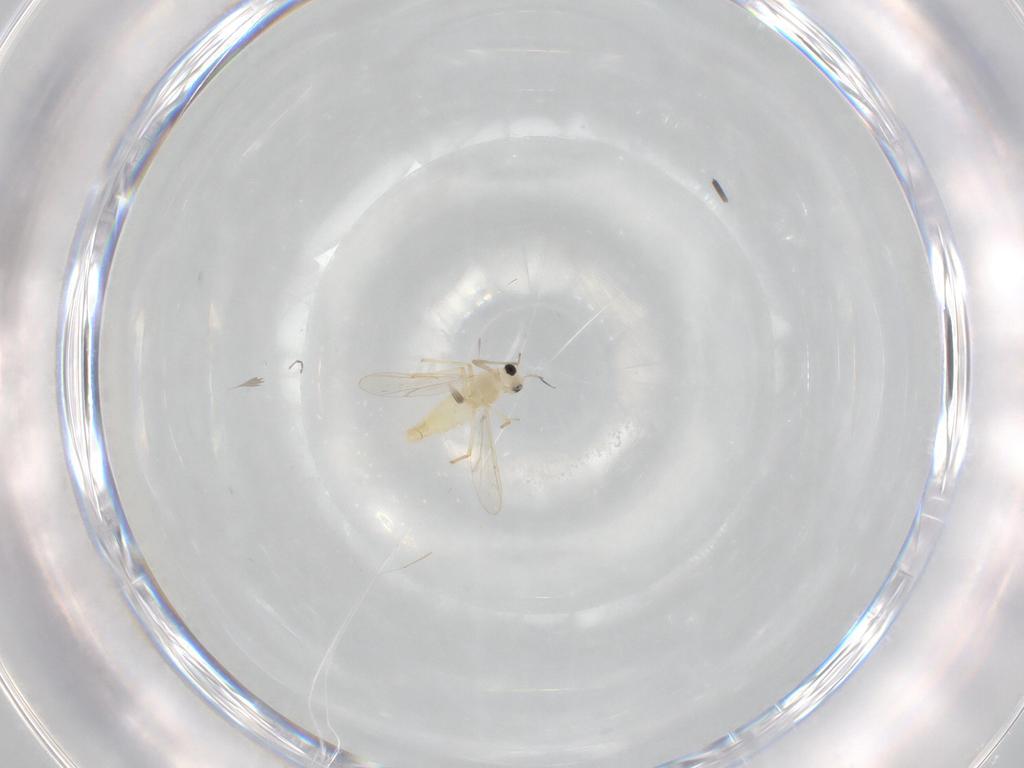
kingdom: Animalia
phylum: Arthropoda
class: Insecta
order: Diptera
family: Chironomidae
